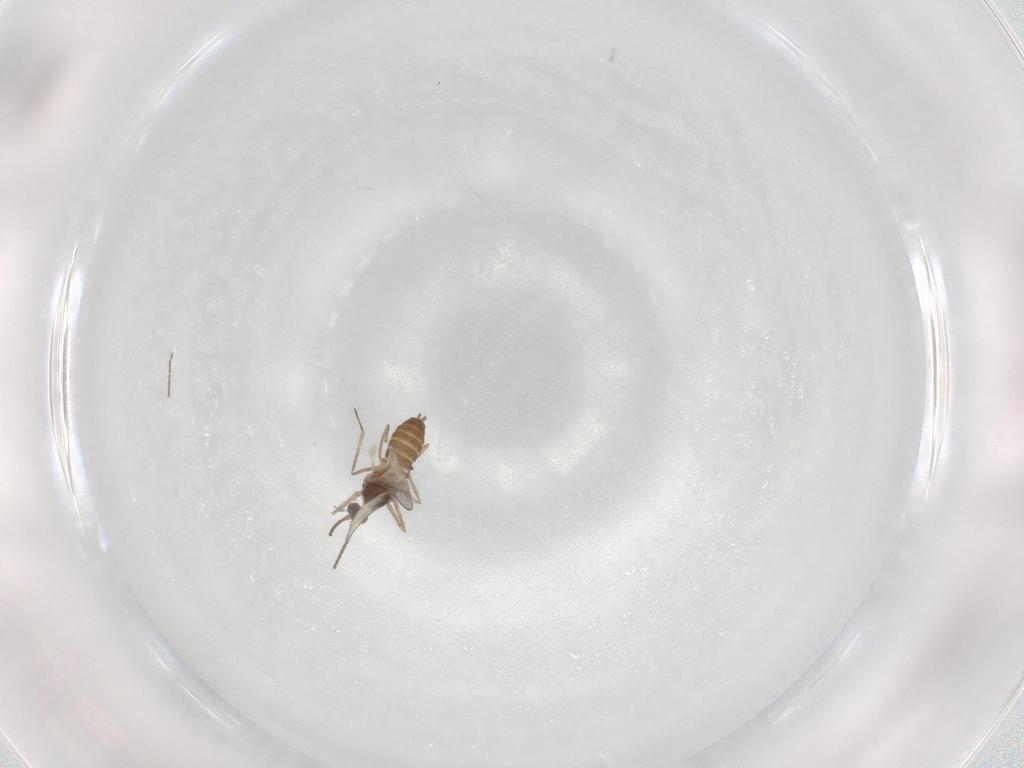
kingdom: Animalia
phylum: Arthropoda
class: Insecta
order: Diptera
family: Cecidomyiidae
